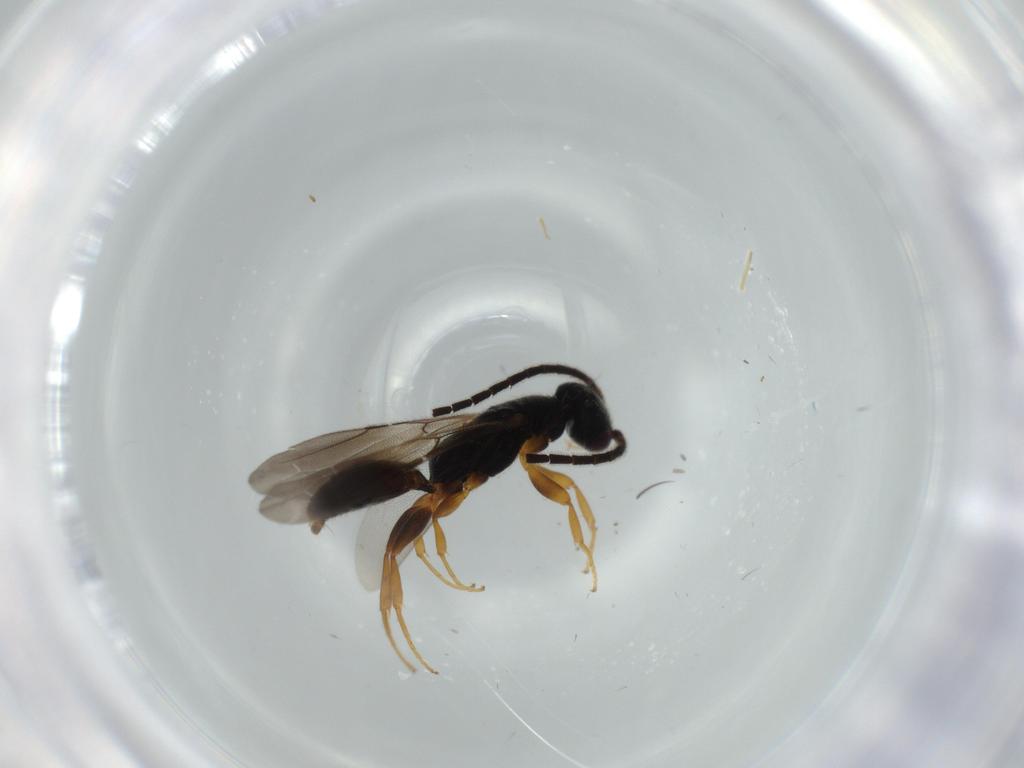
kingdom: Animalia
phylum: Arthropoda
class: Insecta
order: Hymenoptera
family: Bethylidae
